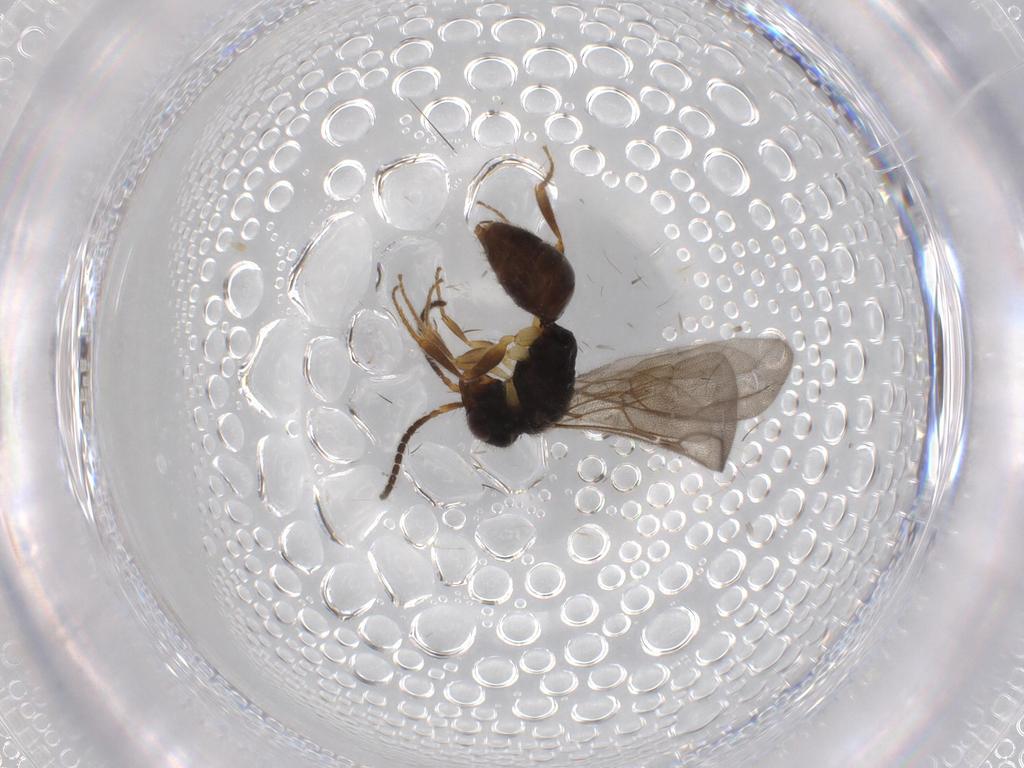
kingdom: Animalia
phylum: Arthropoda
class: Insecta
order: Hymenoptera
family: Bethylidae
